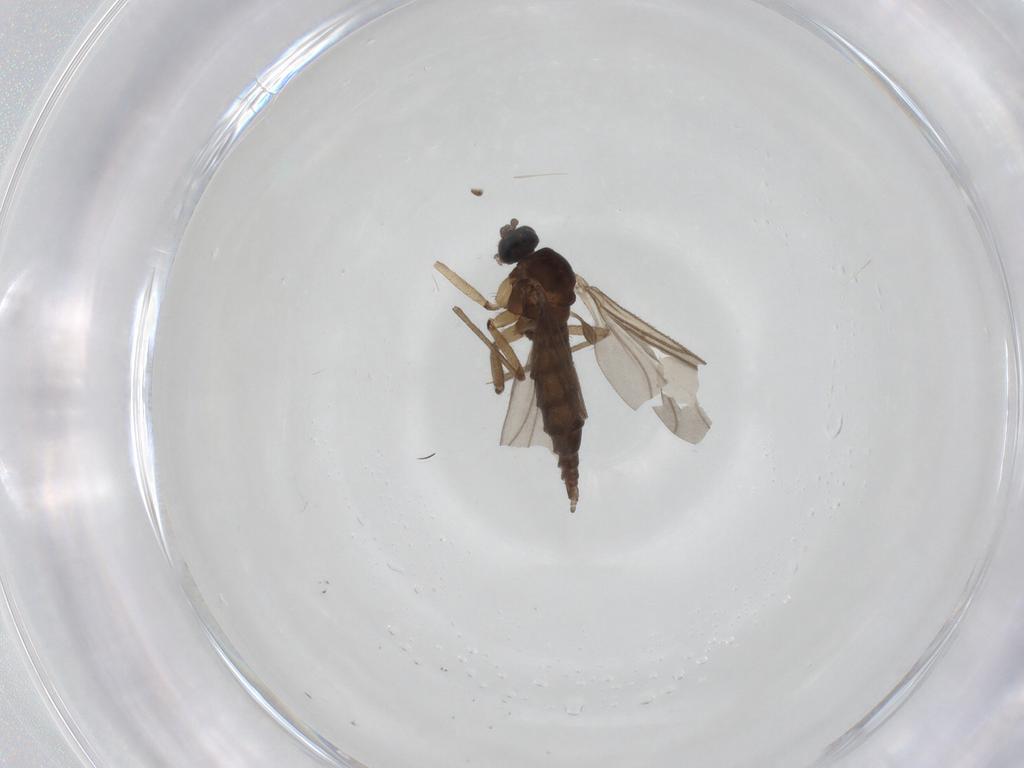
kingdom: Animalia
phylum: Arthropoda
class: Insecta
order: Diptera
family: Sciaridae
